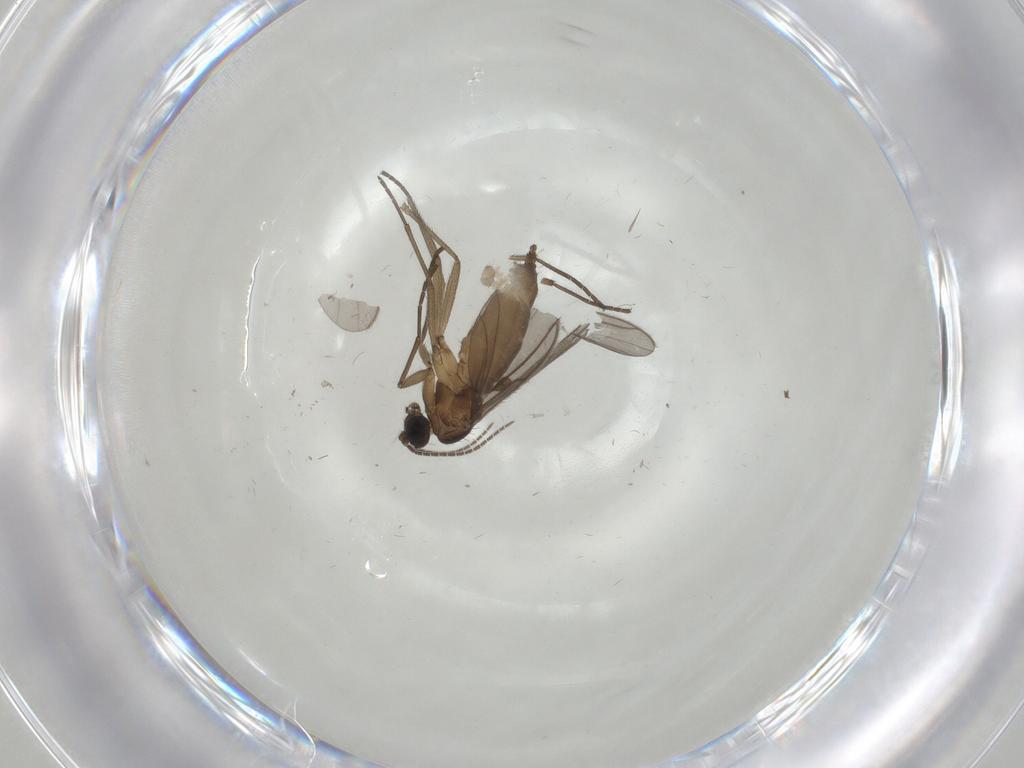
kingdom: Animalia
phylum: Arthropoda
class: Insecta
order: Diptera
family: Sciaridae
